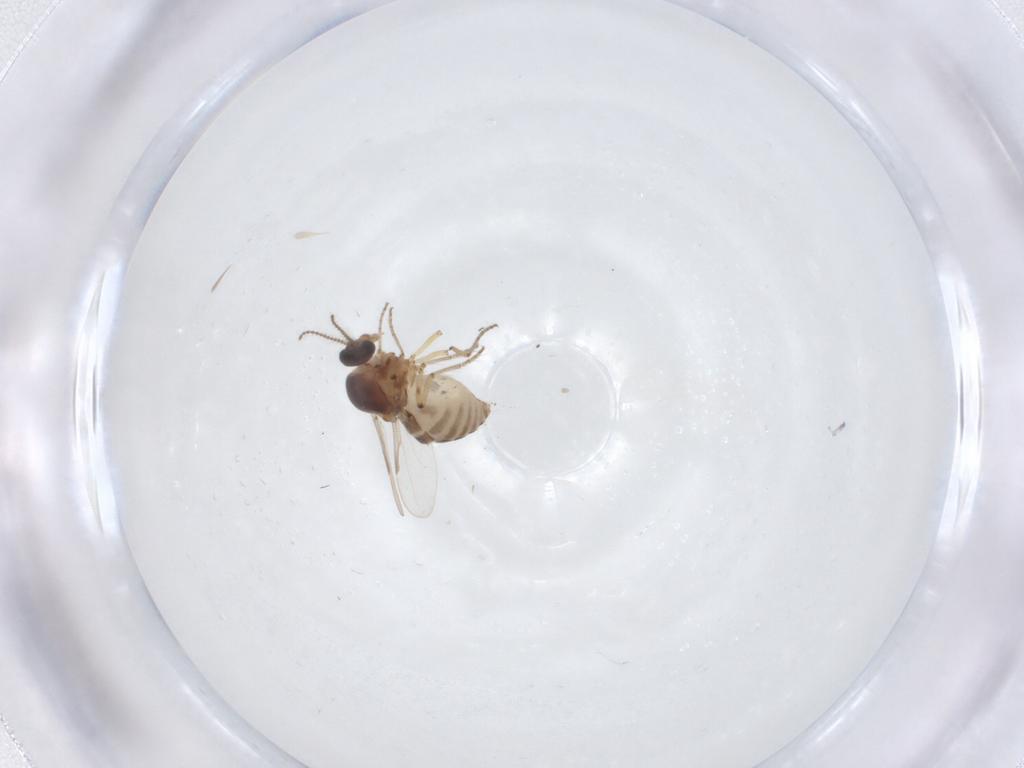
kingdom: Animalia
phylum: Arthropoda
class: Insecta
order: Diptera
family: Ceratopogonidae
